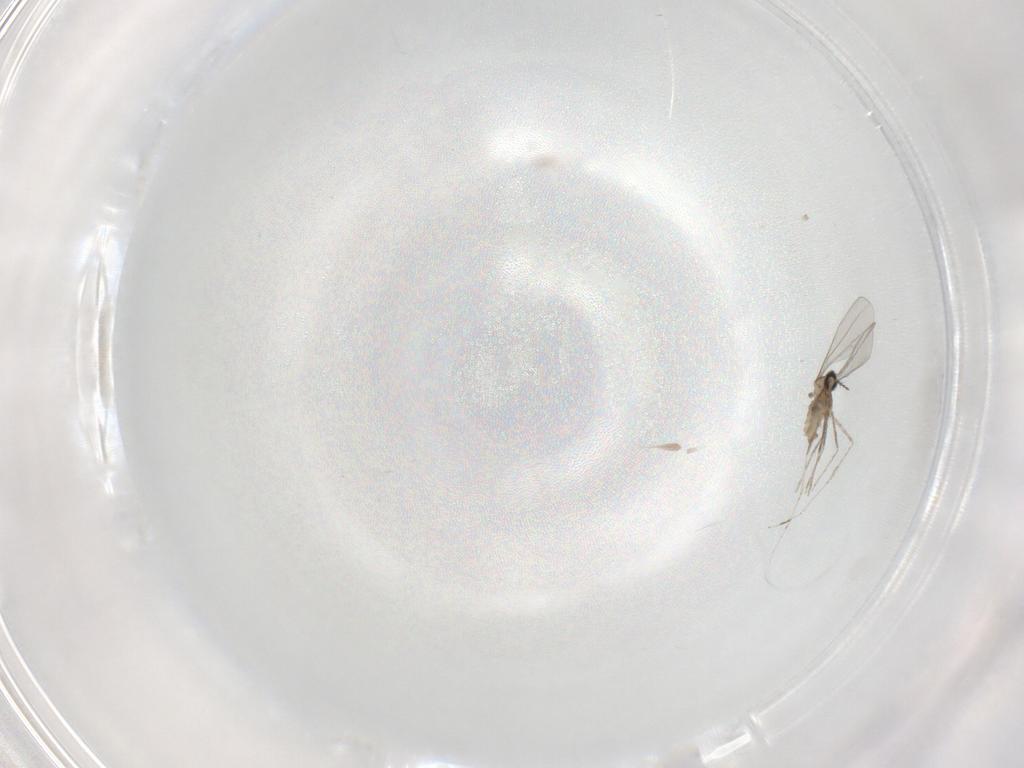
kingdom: Animalia
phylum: Arthropoda
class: Insecta
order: Diptera
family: Cecidomyiidae
